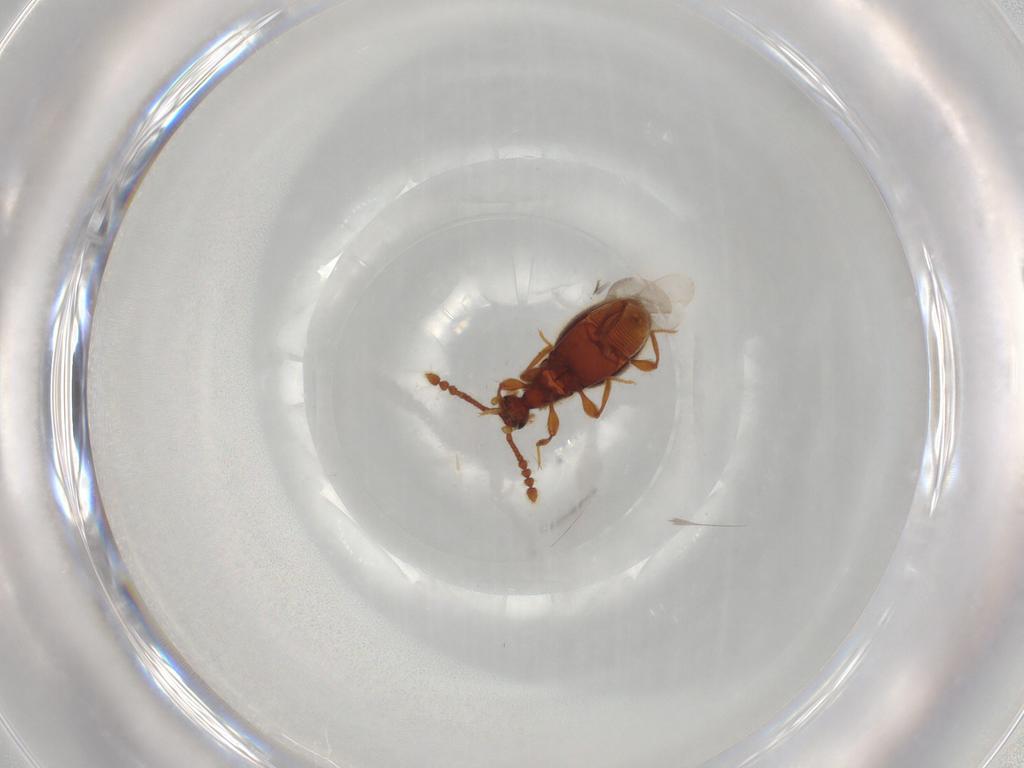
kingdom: Animalia
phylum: Arthropoda
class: Insecta
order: Coleoptera
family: Staphylinidae
